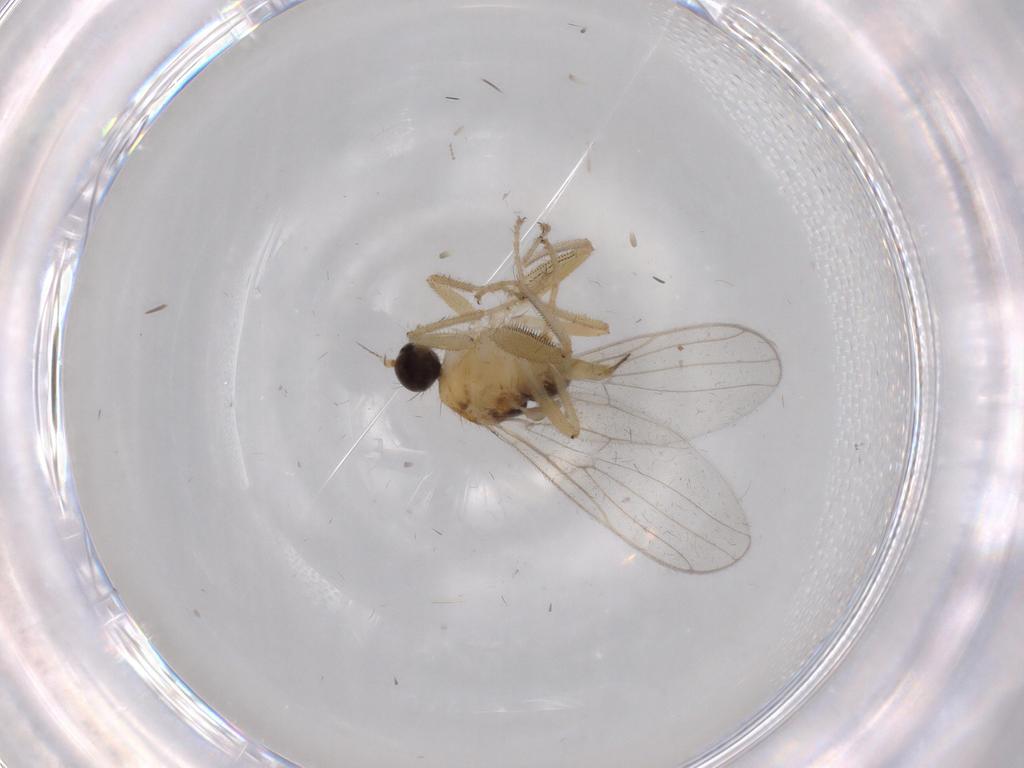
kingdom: Animalia
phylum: Arthropoda
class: Insecta
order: Diptera
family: Hybotidae
